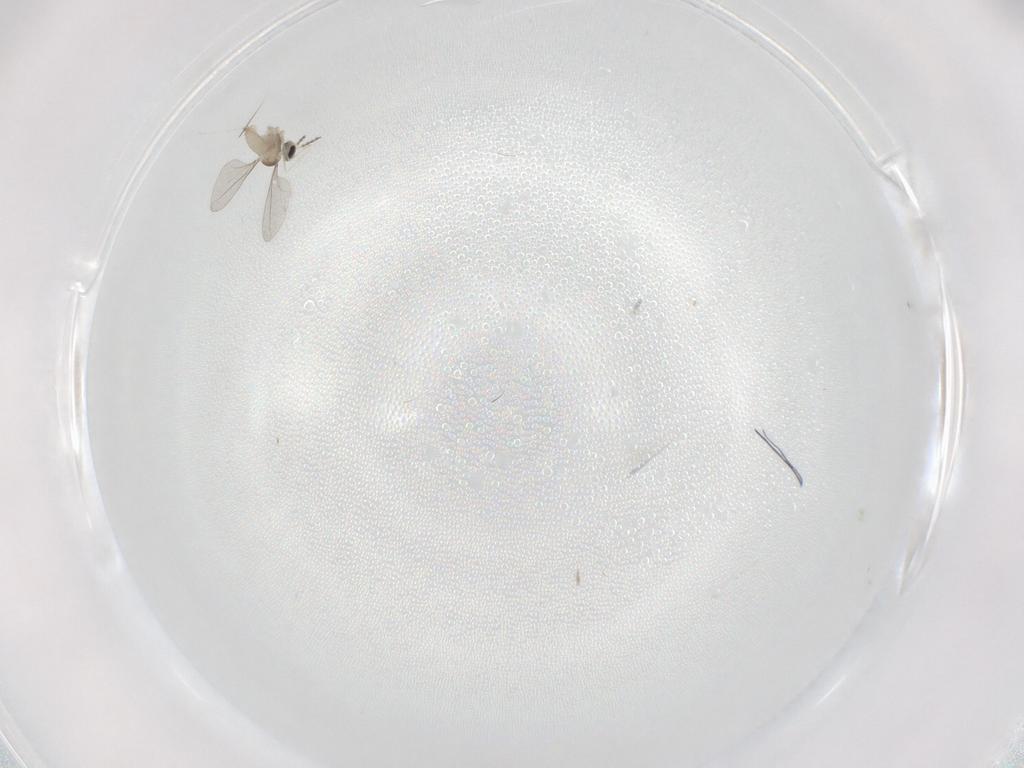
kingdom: Animalia
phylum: Arthropoda
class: Insecta
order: Diptera
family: Cecidomyiidae
